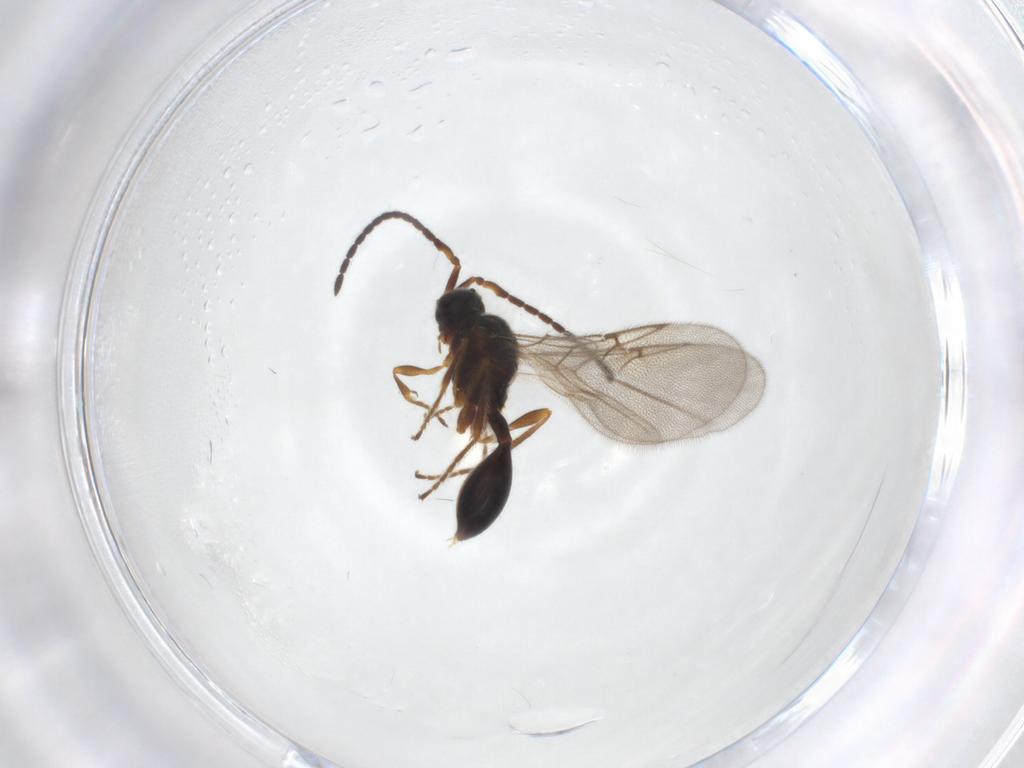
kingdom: Animalia
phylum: Arthropoda
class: Insecta
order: Hymenoptera
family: Diapriidae
